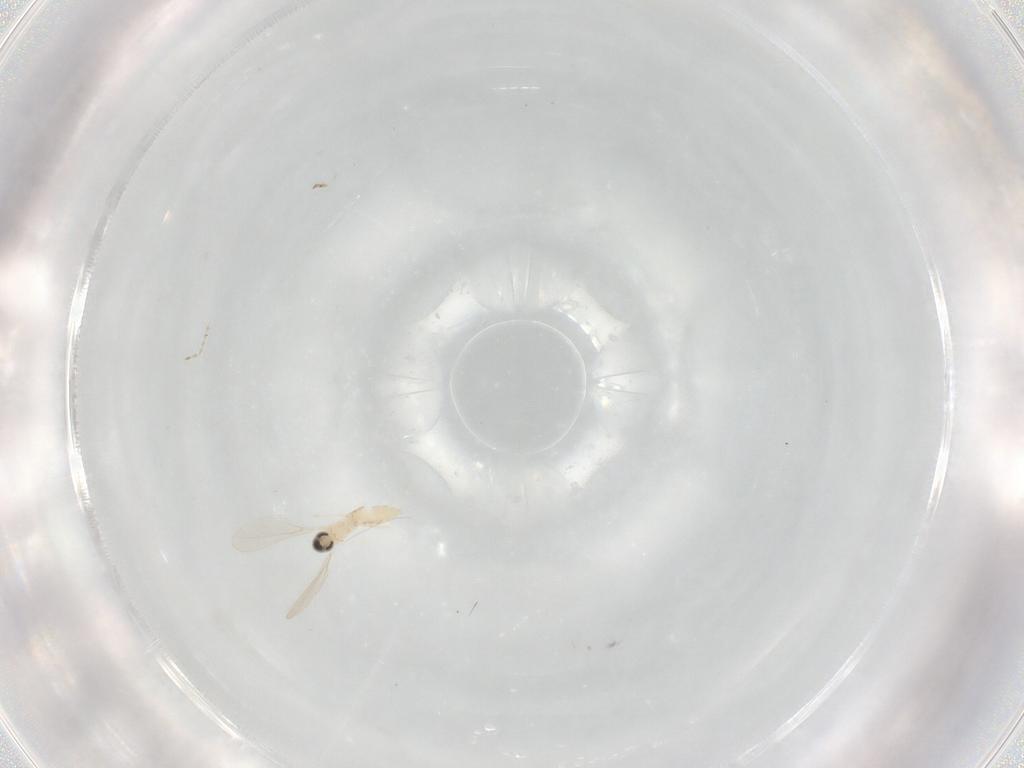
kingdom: Animalia
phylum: Arthropoda
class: Insecta
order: Diptera
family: Cecidomyiidae
